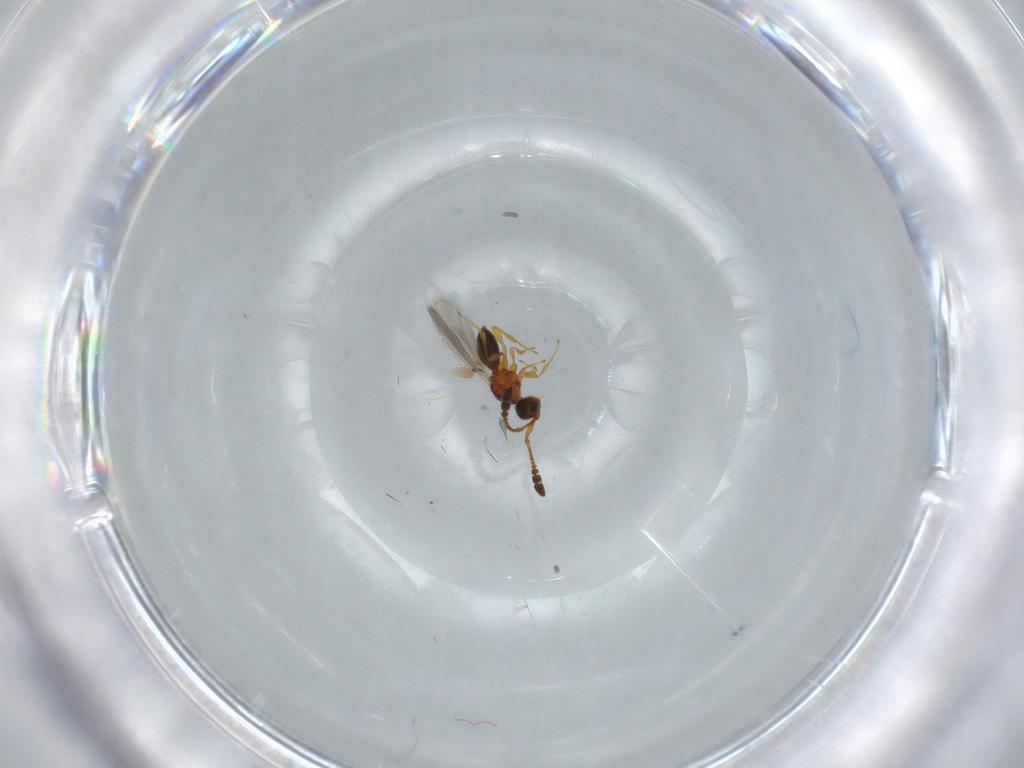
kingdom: Animalia
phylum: Arthropoda
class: Insecta
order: Hymenoptera
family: Diapriidae
